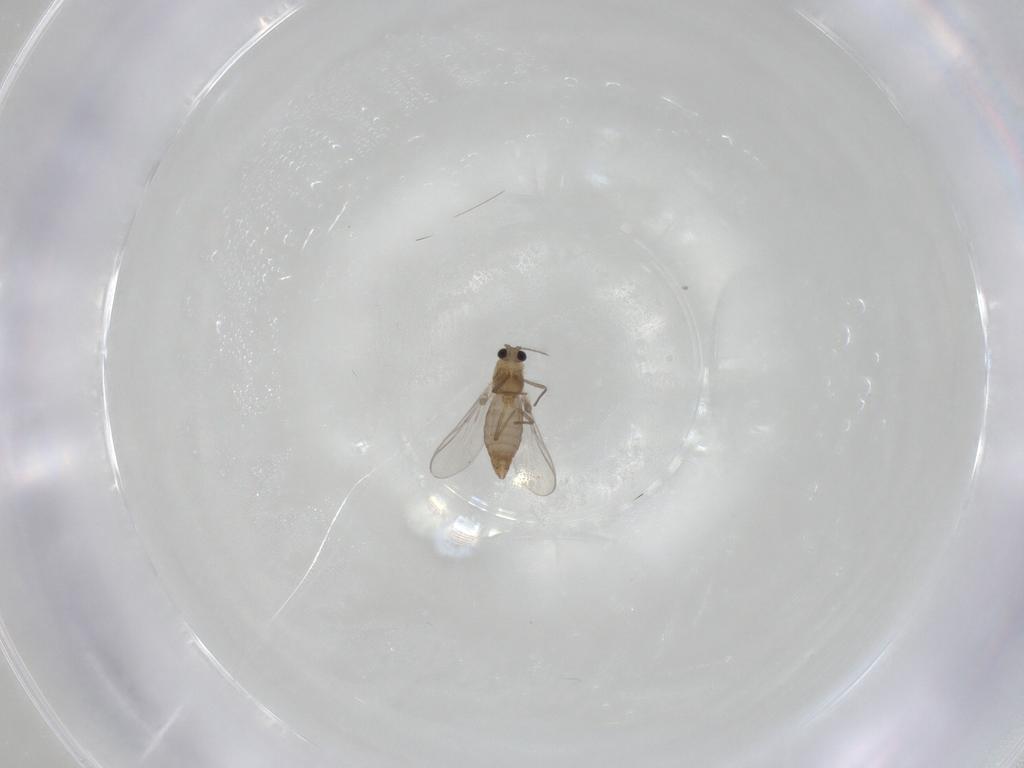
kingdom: Animalia
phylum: Arthropoda
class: Insecta
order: Diptera
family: Chironomidae
